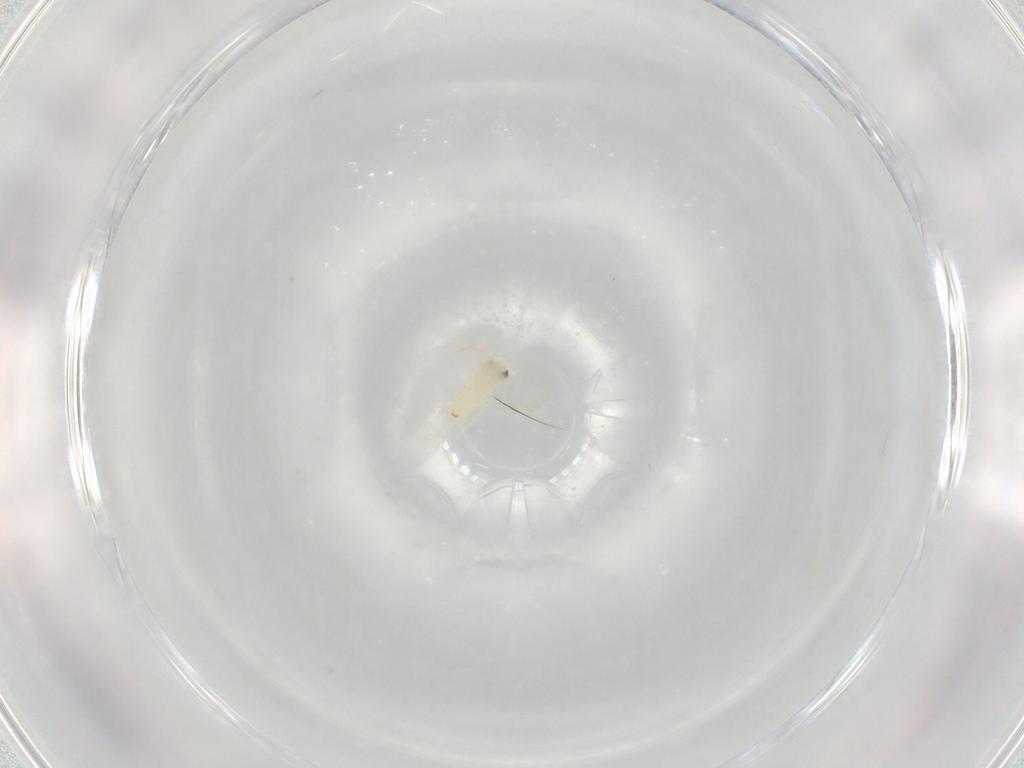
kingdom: Animalia
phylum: Arthropoda
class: Insecta
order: Hemiptera
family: Aleyrodidae
